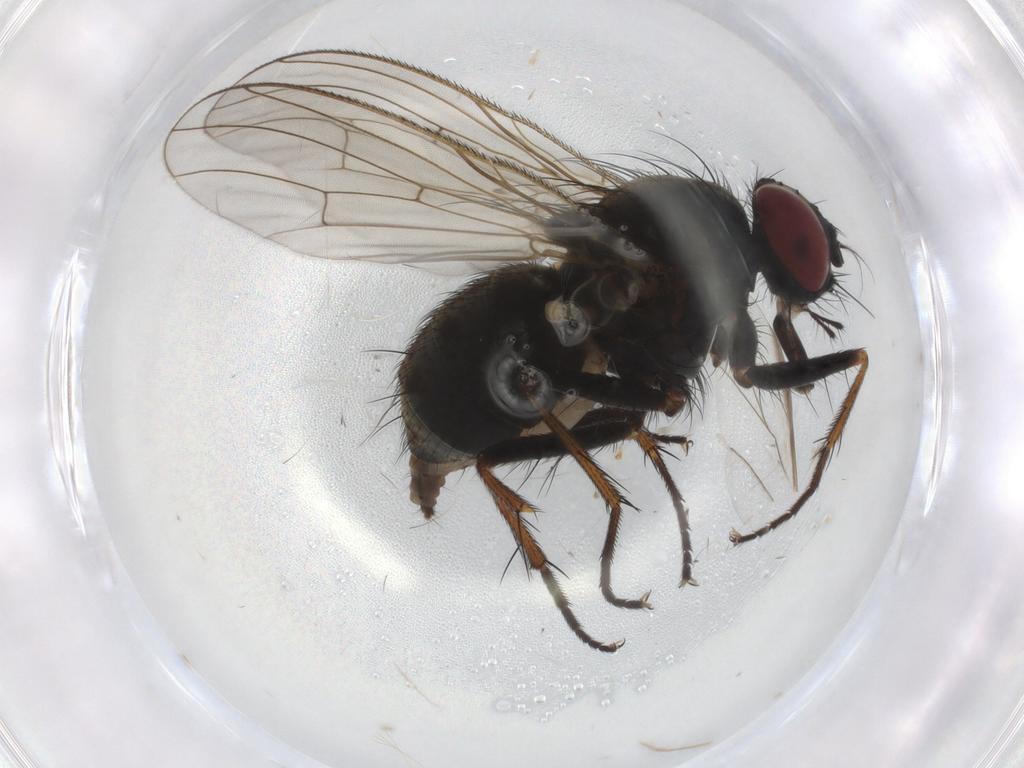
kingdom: Animalia
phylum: Arthropoda
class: Insecta
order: Diptera
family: Muscidae
